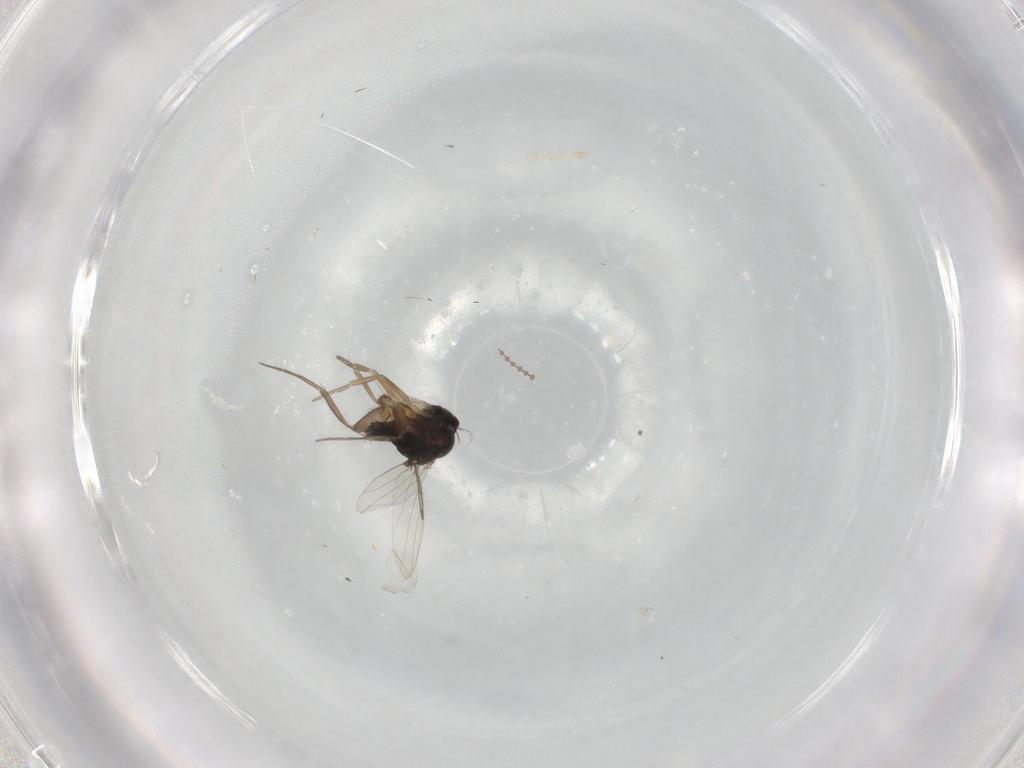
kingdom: Animalia
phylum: Arthropoda
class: Insecta
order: Diptera
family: Phoridae
